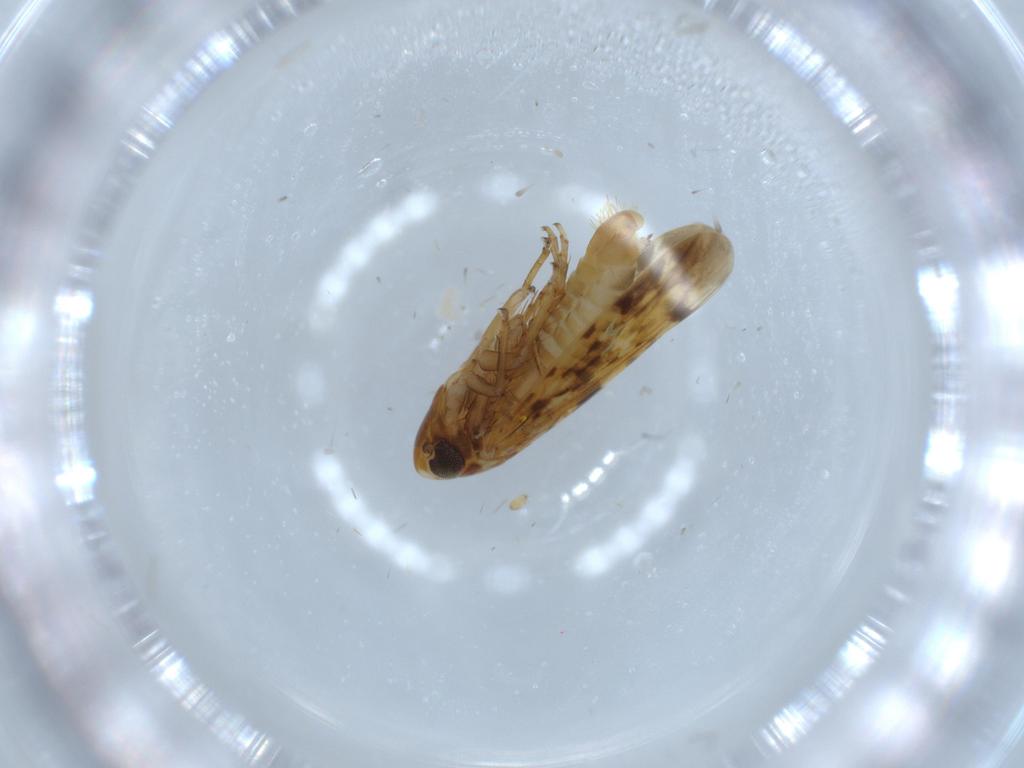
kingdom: Animalia
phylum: Arthropoda
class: Insecta
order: Hemiptera
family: Cicadellidae
